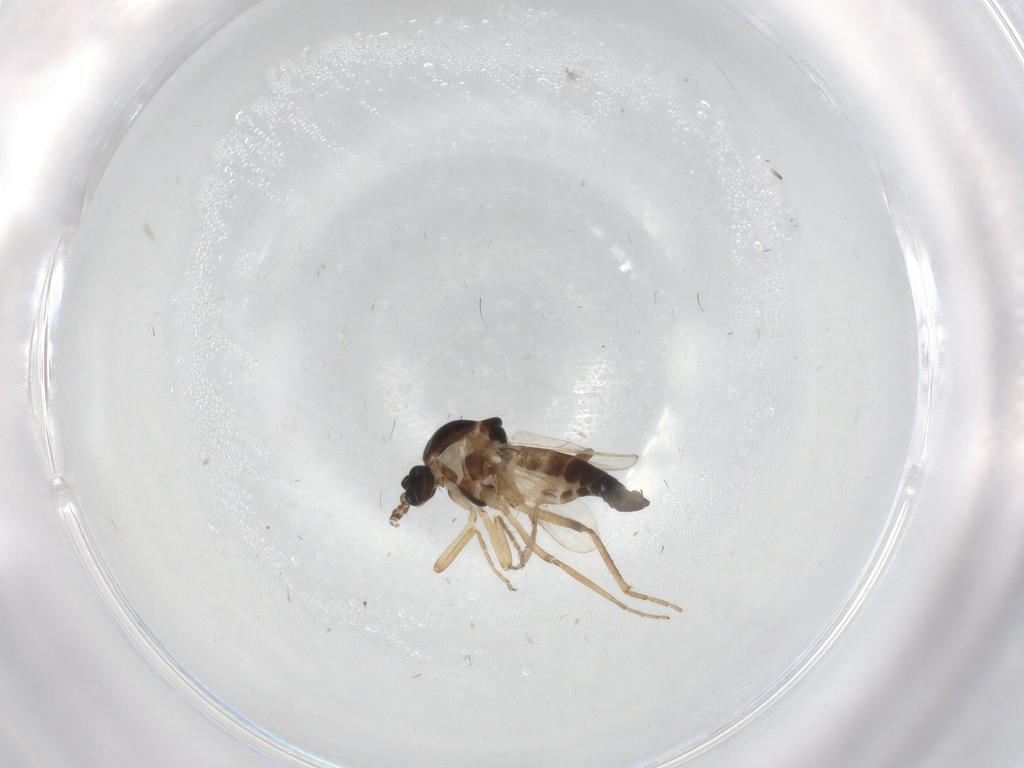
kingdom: Animalia
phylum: Arthropoda
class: Insecta
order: Diptera
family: Ceratopogonidae
